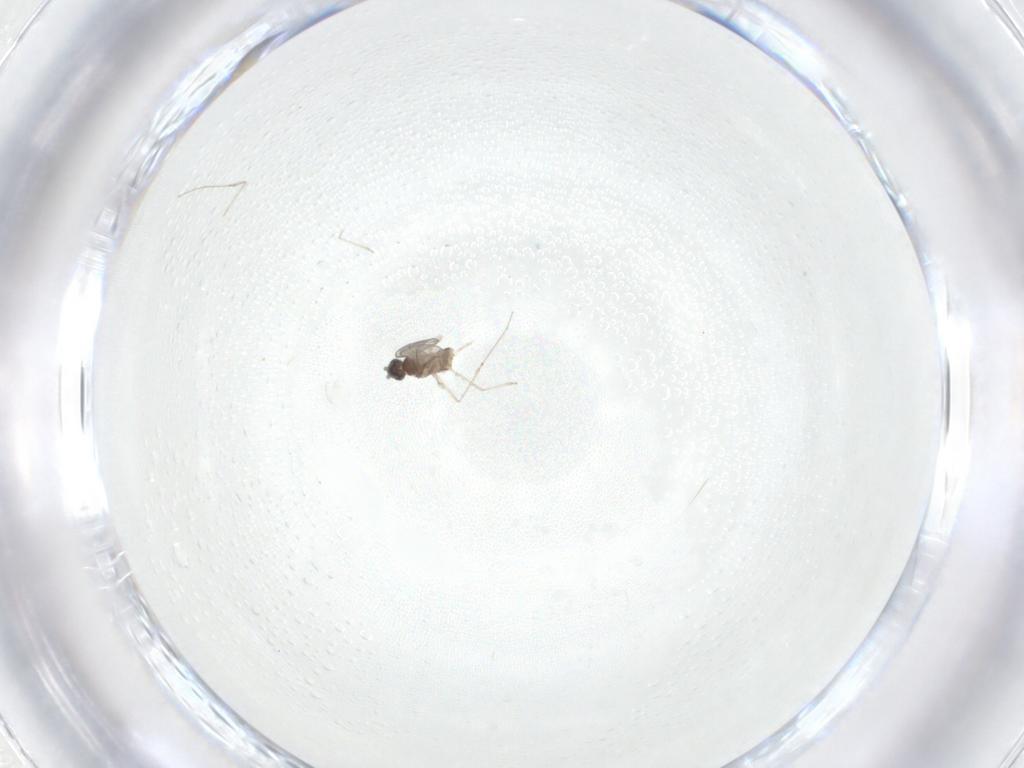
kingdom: Animalia
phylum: Arthropoda
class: Insecta
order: Diptera
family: Cecidomyiidae
